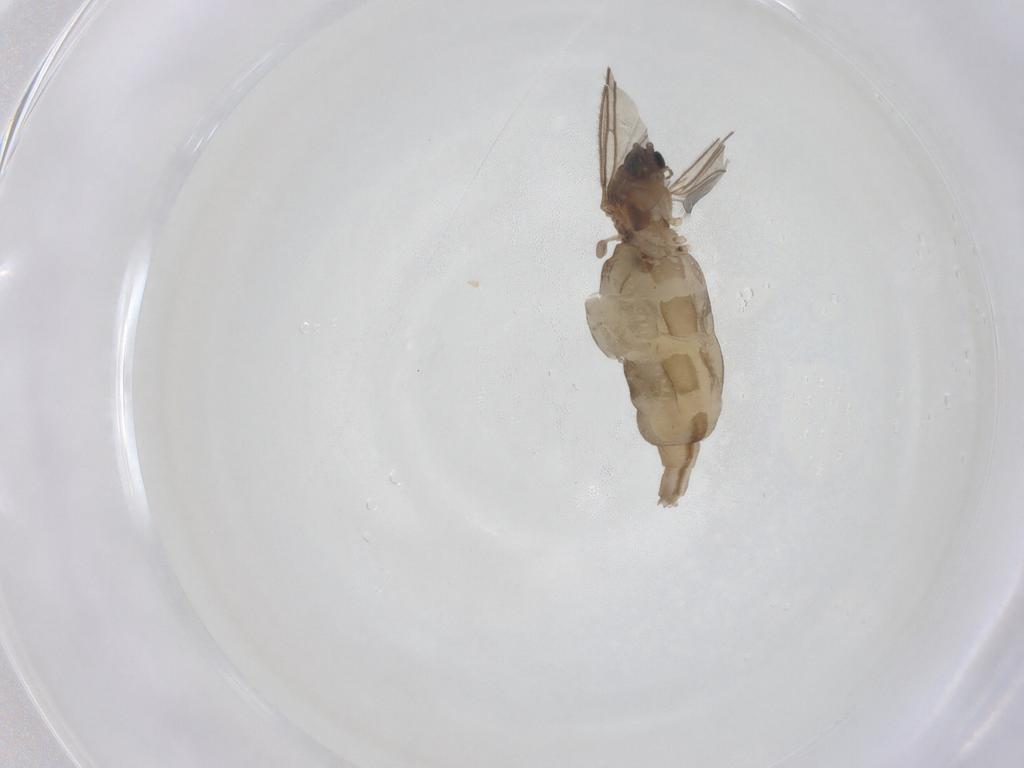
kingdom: Animalia
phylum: Arthropoda
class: Insecta
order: Diptera
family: Sciaridae
